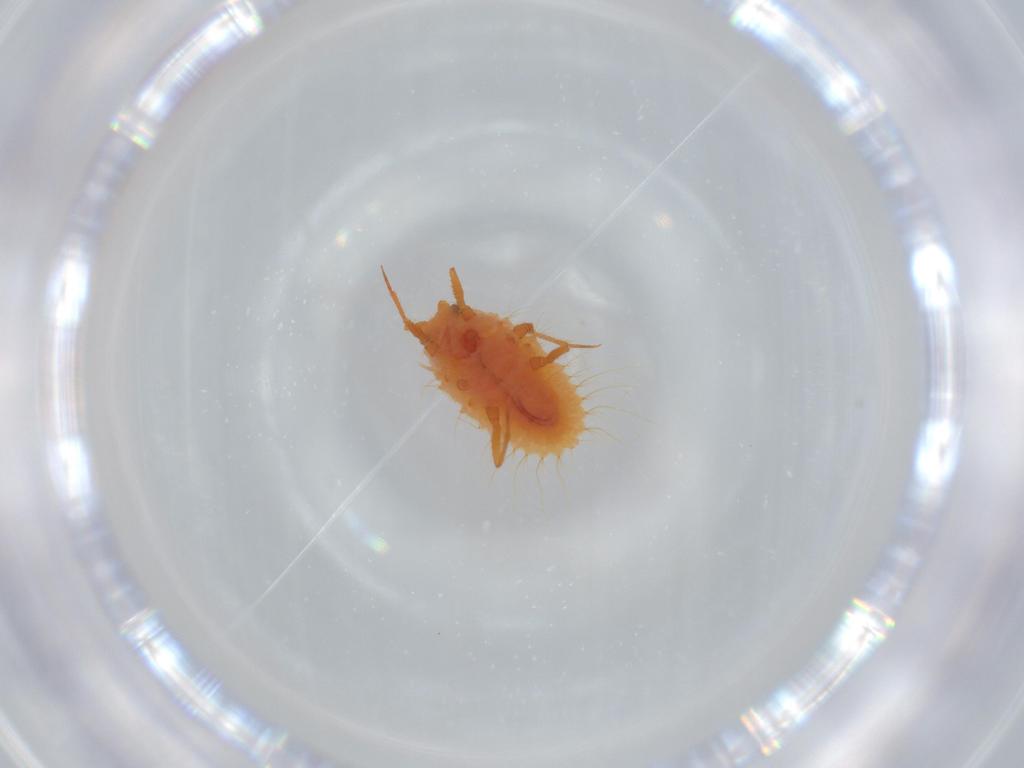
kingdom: Animalia
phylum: Arthropoda
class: Insecta
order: Hemiptera
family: Coccoidea_incertae_sedis
